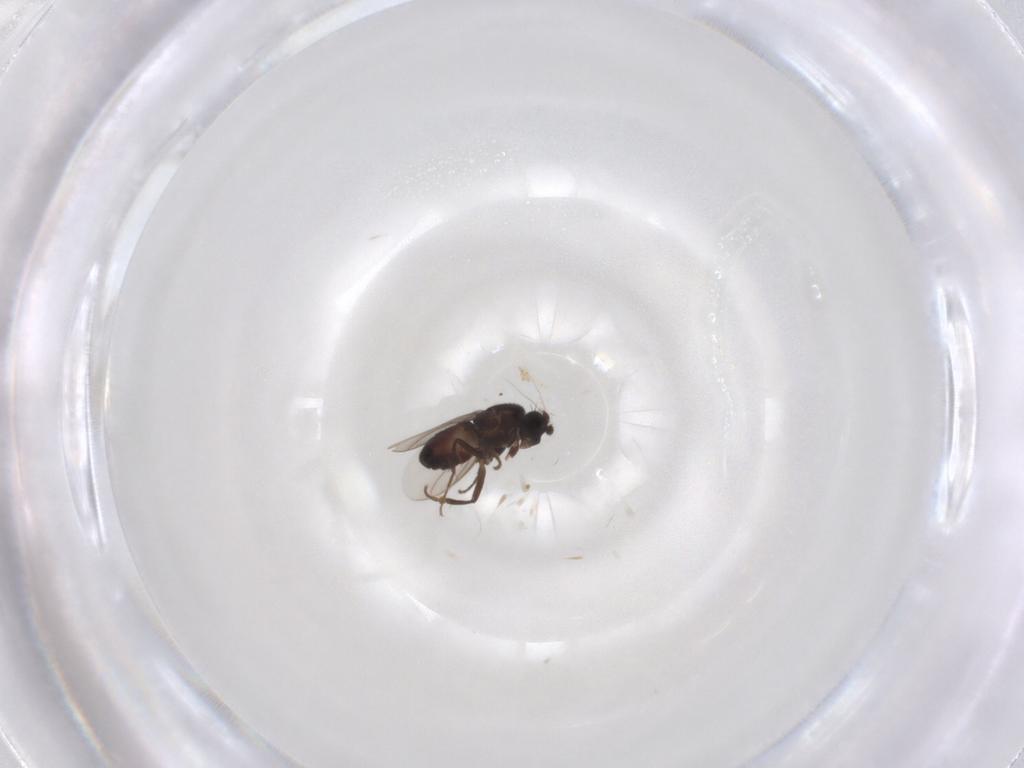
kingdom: Animalia
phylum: Arthropoda
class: Insecta
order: Diptera
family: Sphaeroceridae
